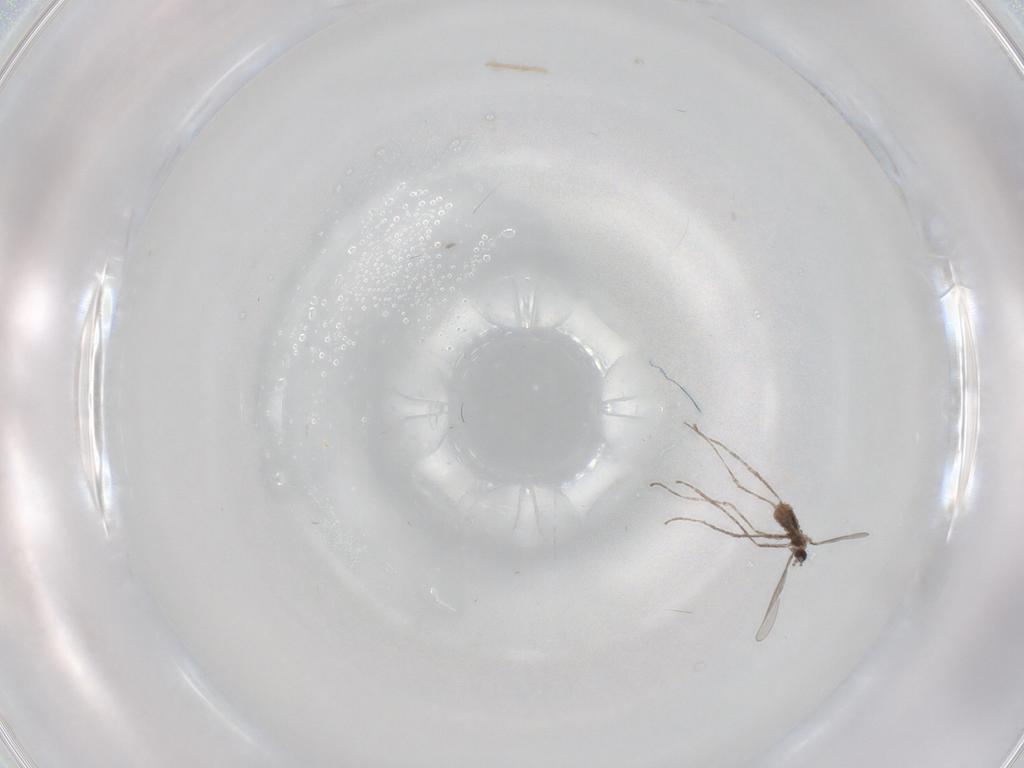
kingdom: Animalia
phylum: Arthropoda
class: Insecta
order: Diptera
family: Cecidomyiidae
